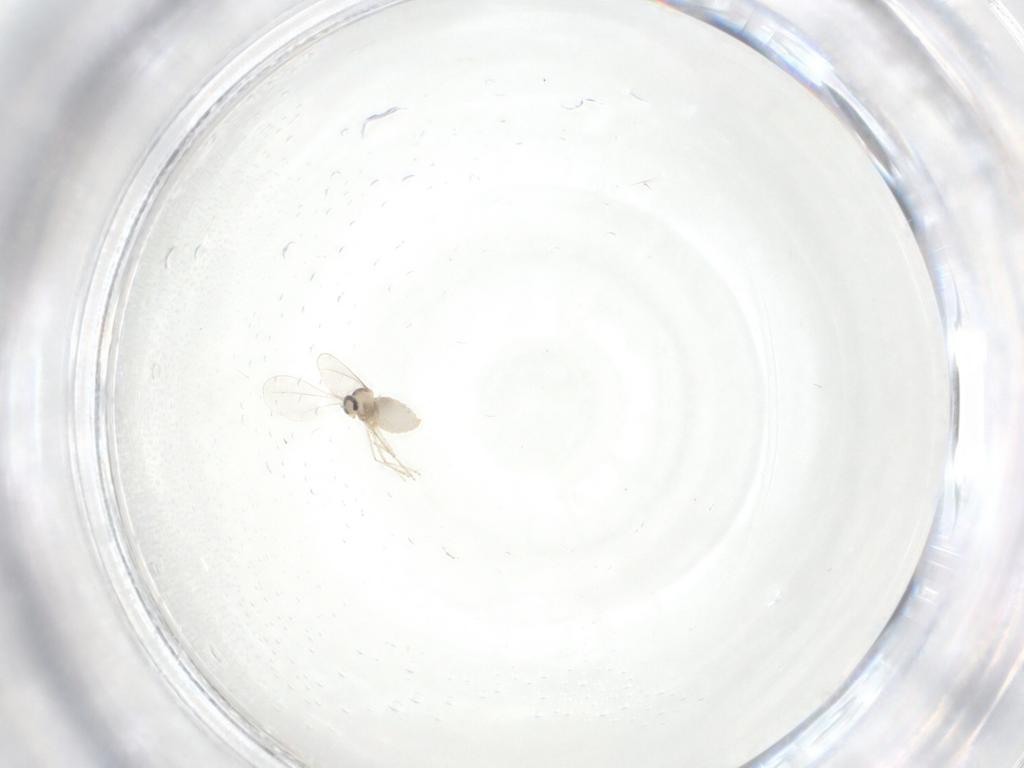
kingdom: Animalia
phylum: Arthropoda
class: Insecta
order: Diptera
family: Cecidomyiidae
